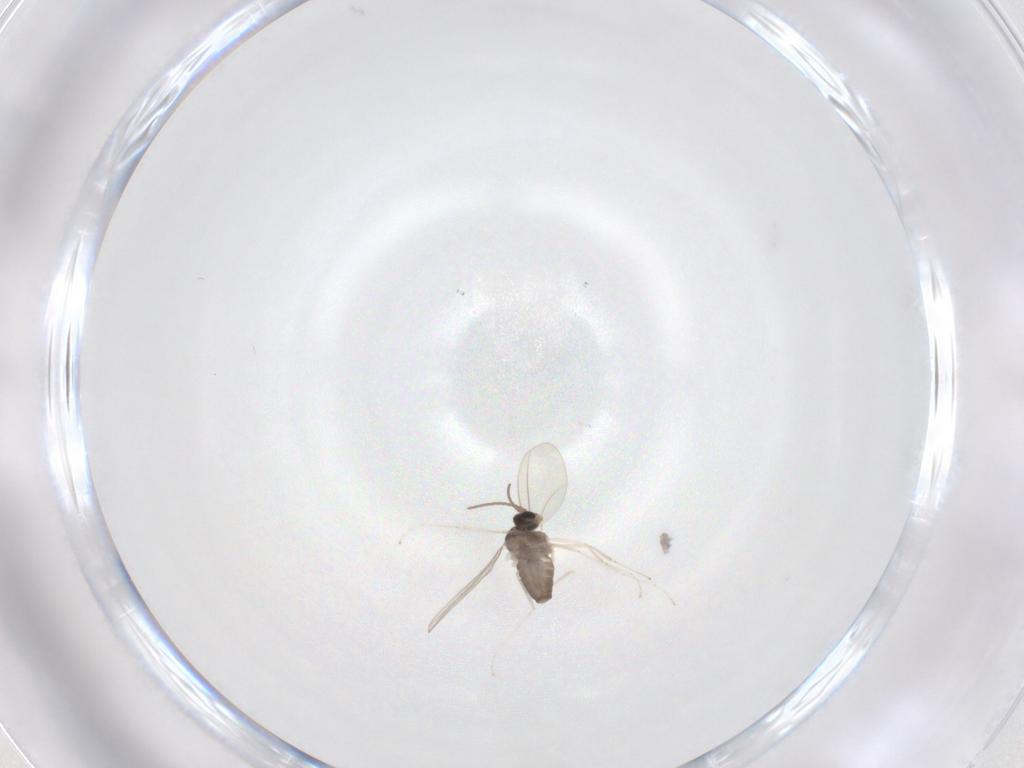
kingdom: Animalia
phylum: Arthropoda
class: Insecta
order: Diptera
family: Cecidomyiidae
